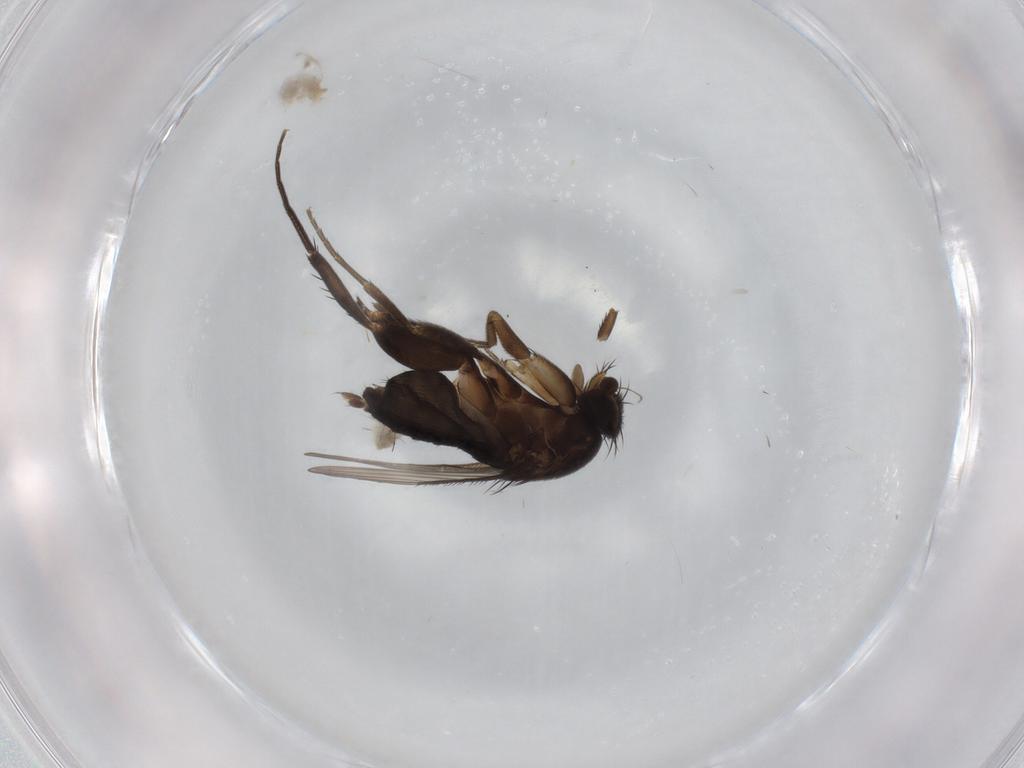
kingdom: Animalia
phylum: Arthropoda
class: Insecta
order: Diptera
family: Phoridae
